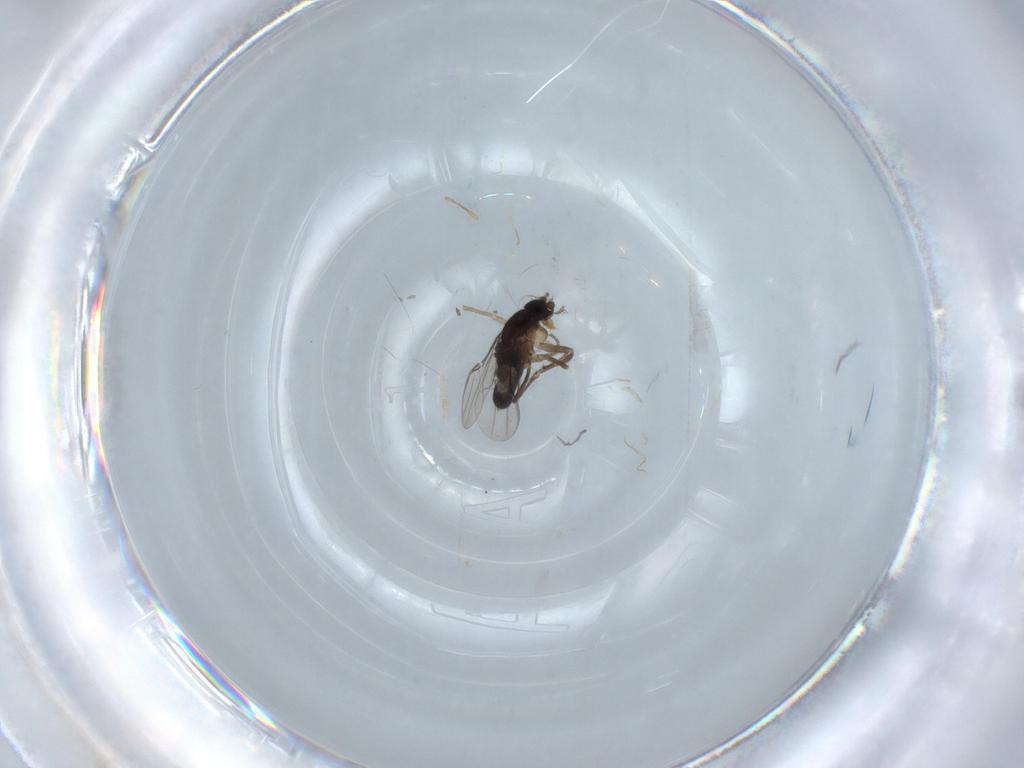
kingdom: Animalia
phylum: Arthropoda
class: Insecta
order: Diptera
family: Chironomidae
